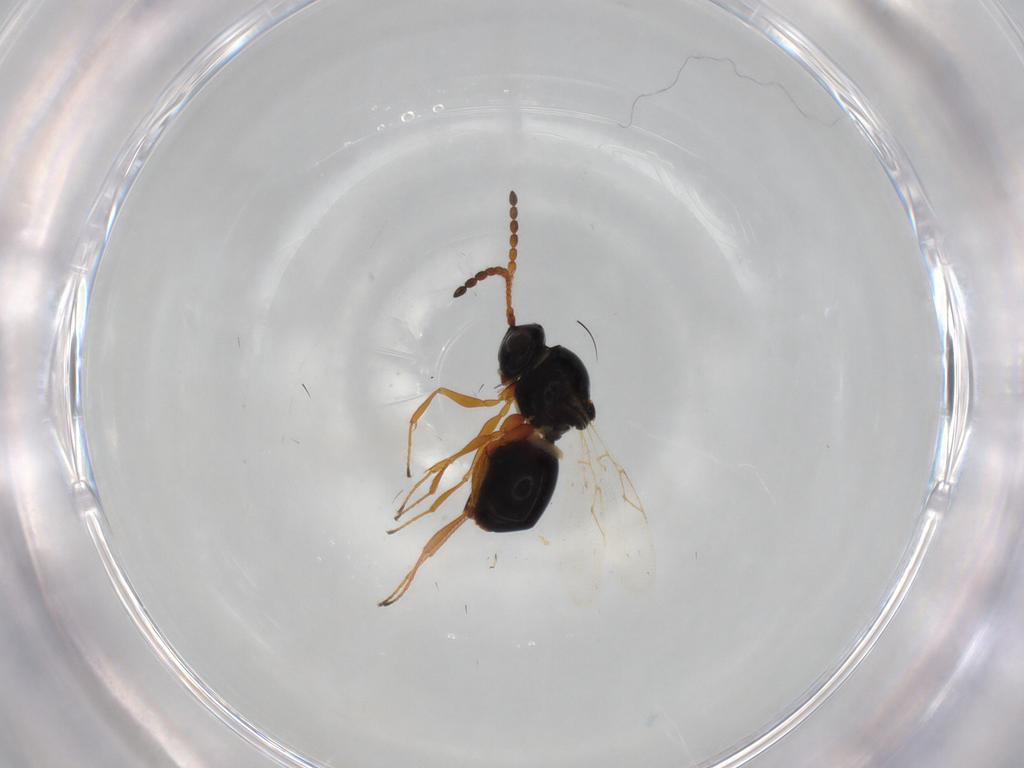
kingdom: Animalia
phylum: Arthropoda
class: Insecta
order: Hymenoptera
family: Figitidae
